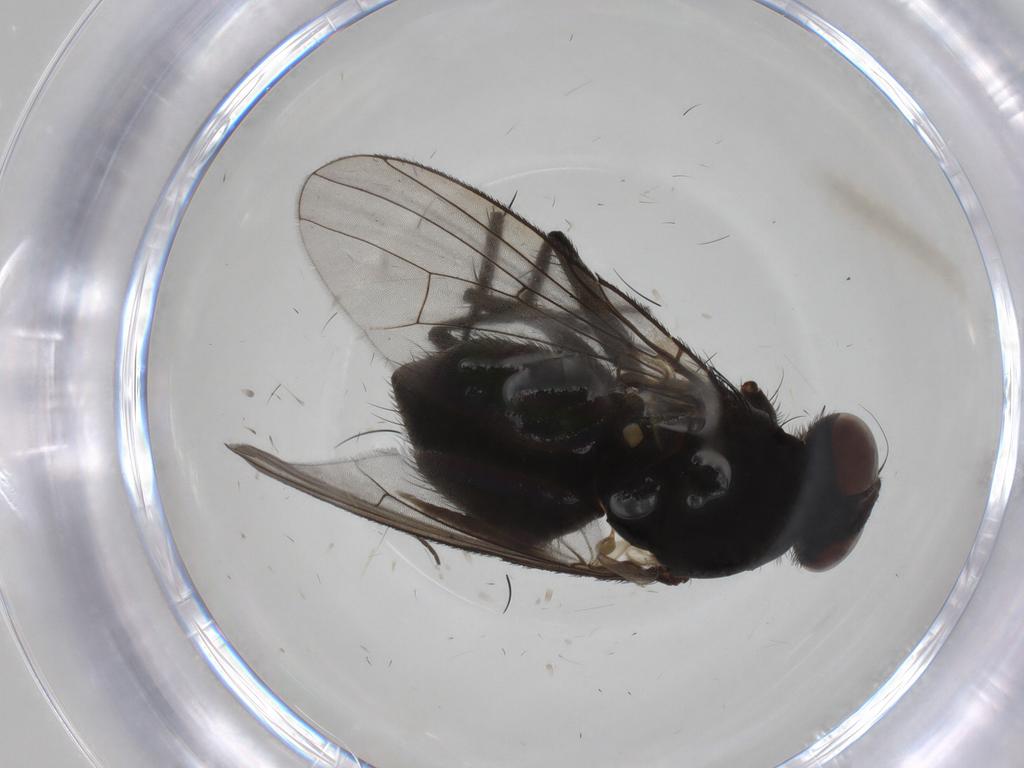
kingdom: Animalia
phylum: Arthropoda
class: Insecta
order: Diptera
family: Muscidae
